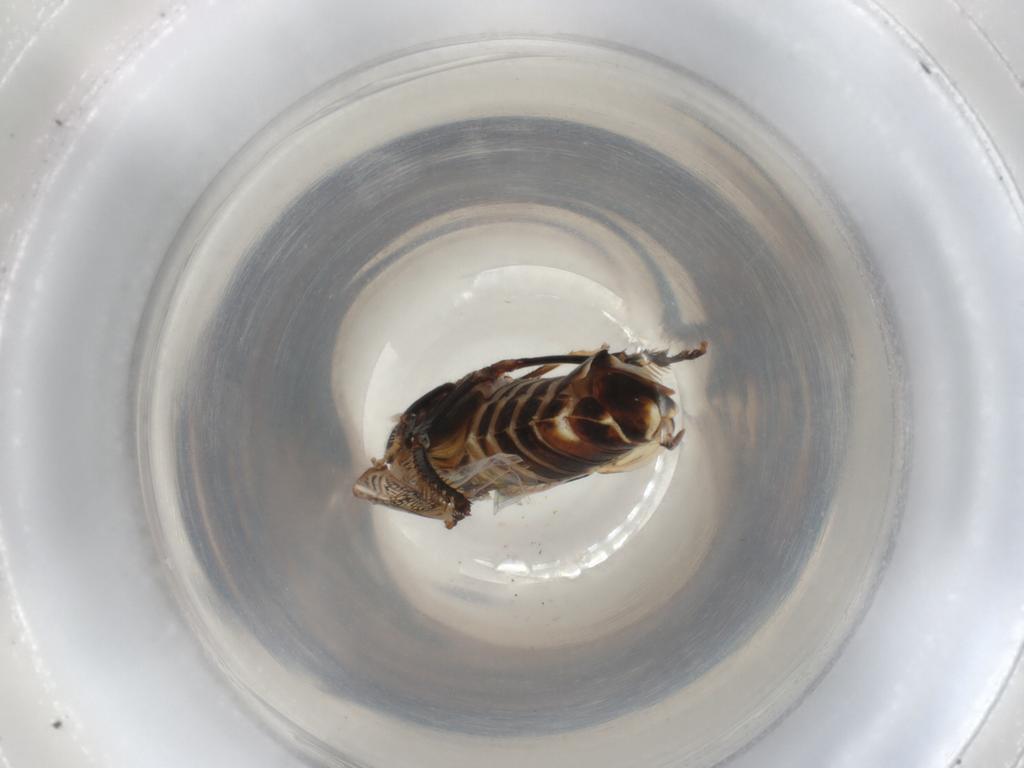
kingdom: Animalia
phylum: Arthropoda
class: Insecta
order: Hymenoptera
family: Formicidae
